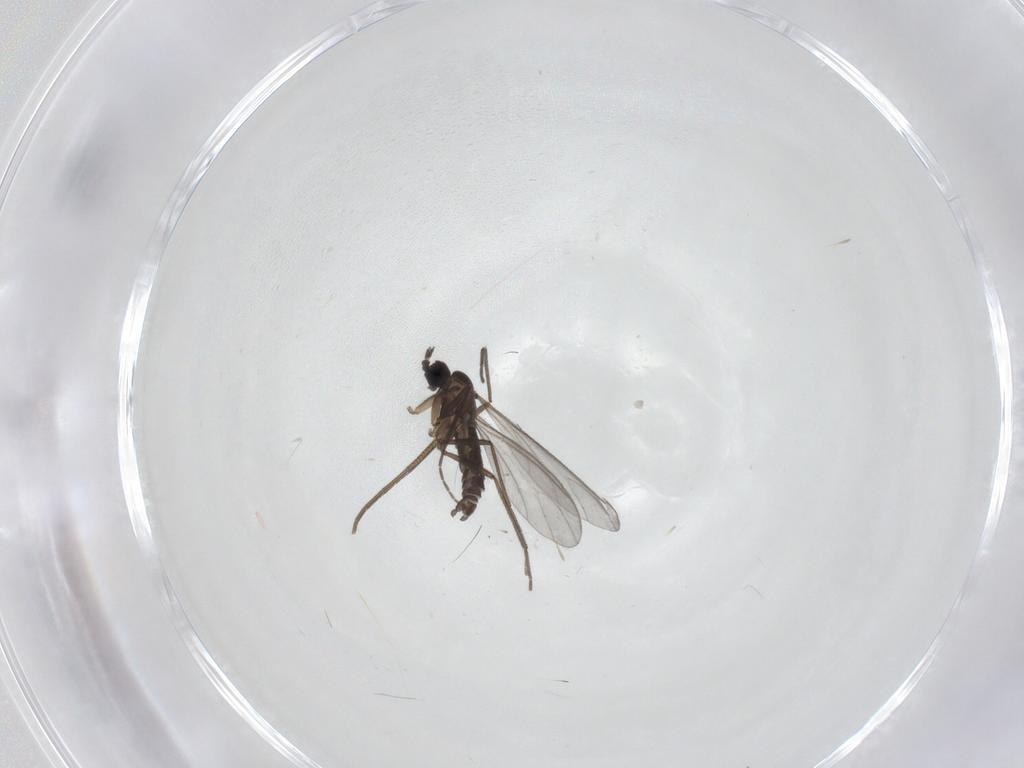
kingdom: Animalia
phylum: Arthropoda
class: Insecta
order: Diptera
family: Sciaridae
